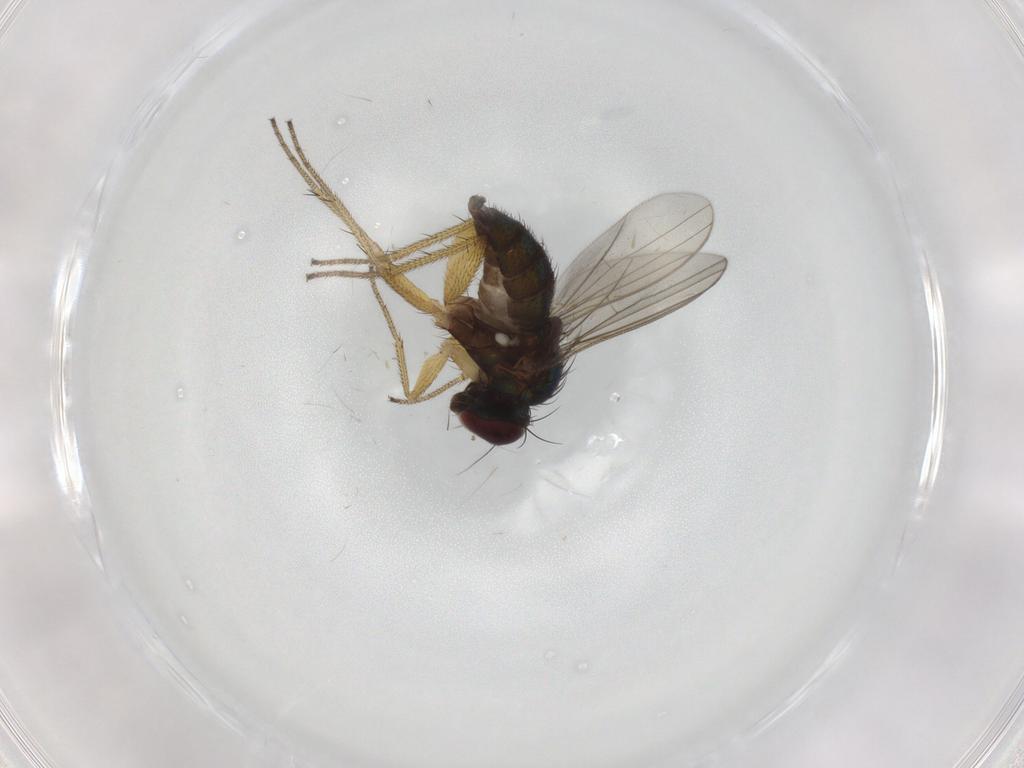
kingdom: Animalia
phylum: Arthropoda
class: Insecta
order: Diptera
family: Dolichopodidae
